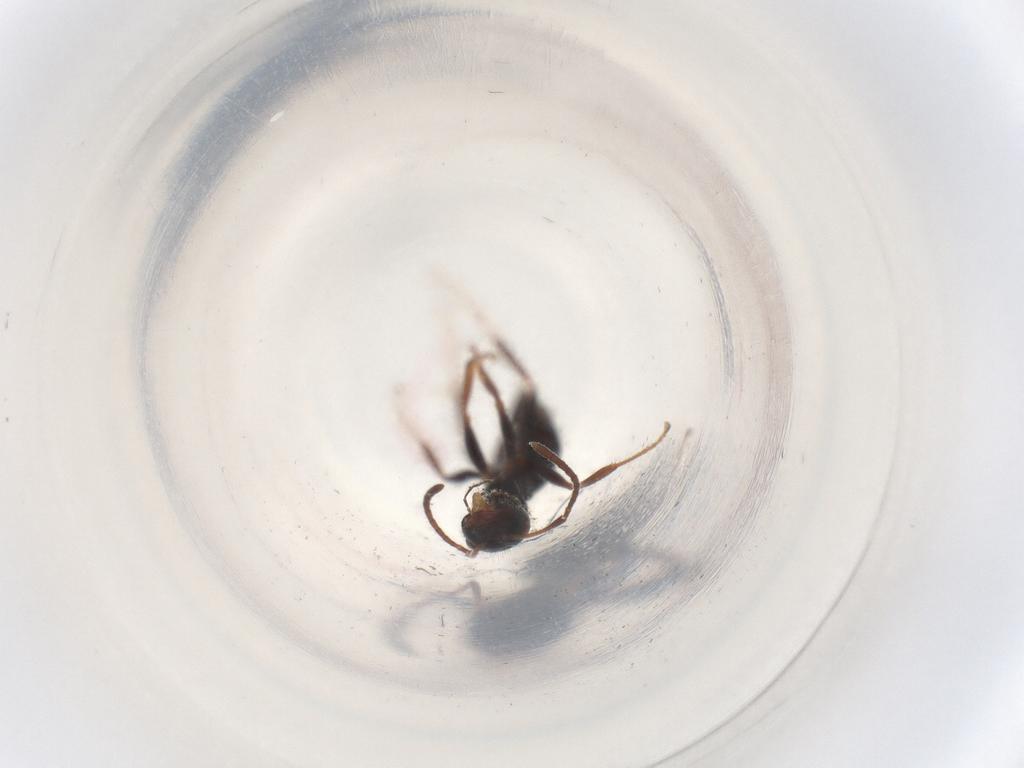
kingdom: Animalia
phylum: Arthropoda
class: Insecta
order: Hymenoptera
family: Formicidae
